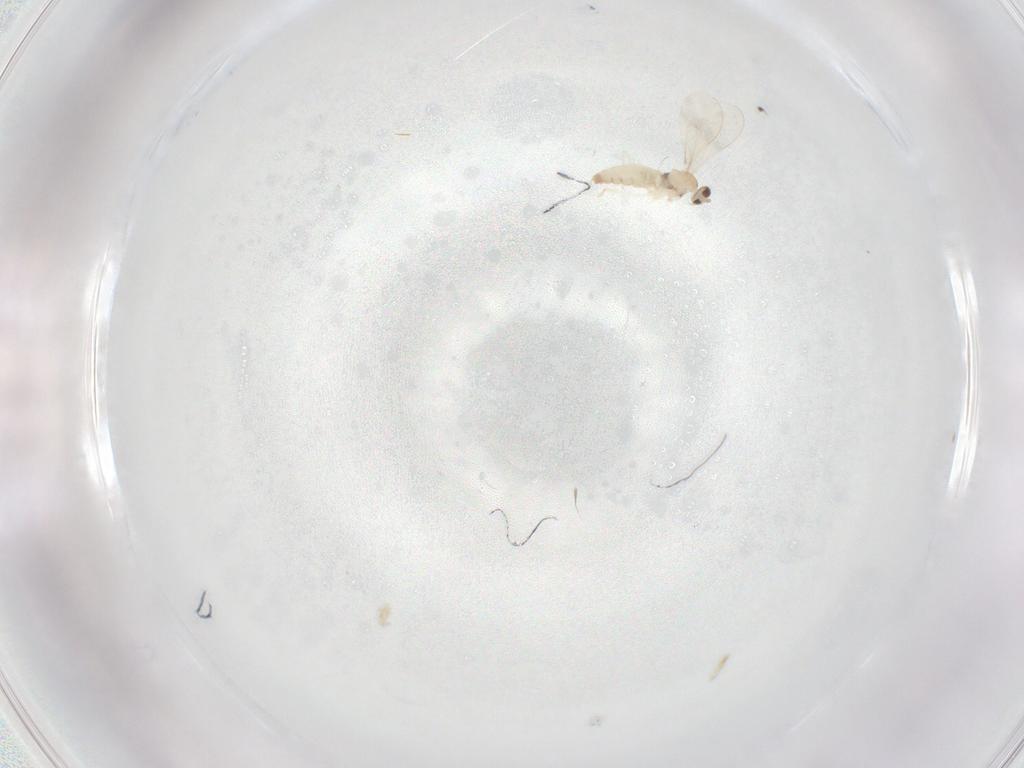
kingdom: Animalia
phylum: Arthropoda
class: Insecta
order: Diptera
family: Cecidomyiidae
